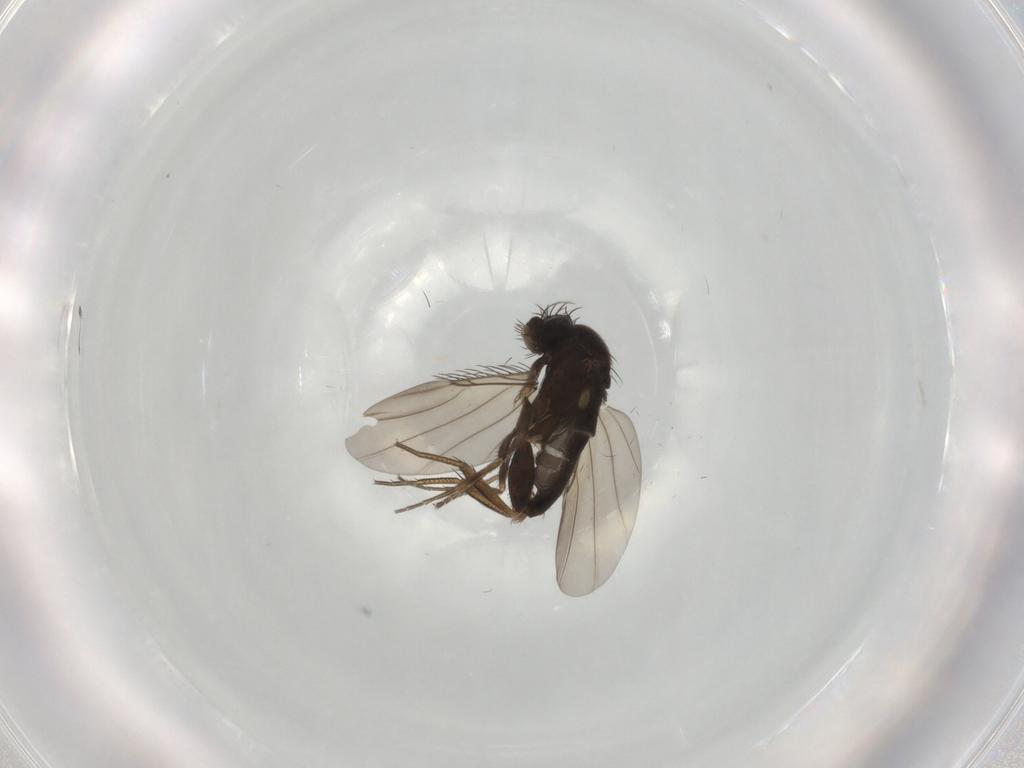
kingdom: Animalia
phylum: Arthropoda
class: Insecta
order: Diptera
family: Phoridae
